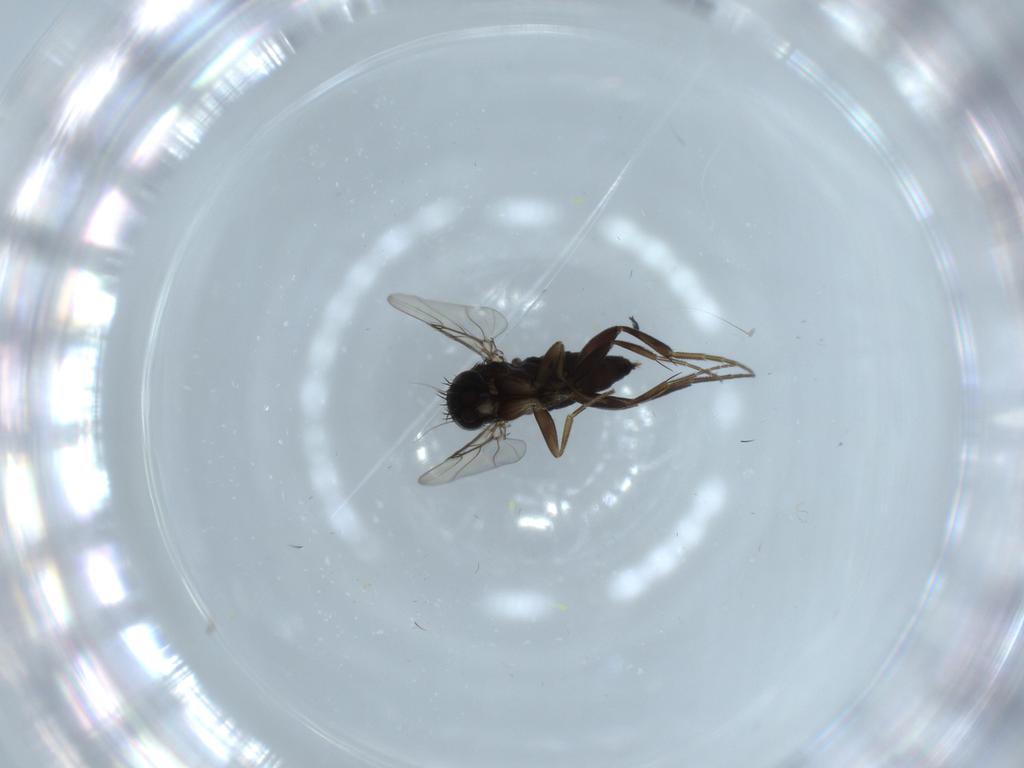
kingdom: Animalia
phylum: Arthropoda
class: Insecta
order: Diptera
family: Phoridae
